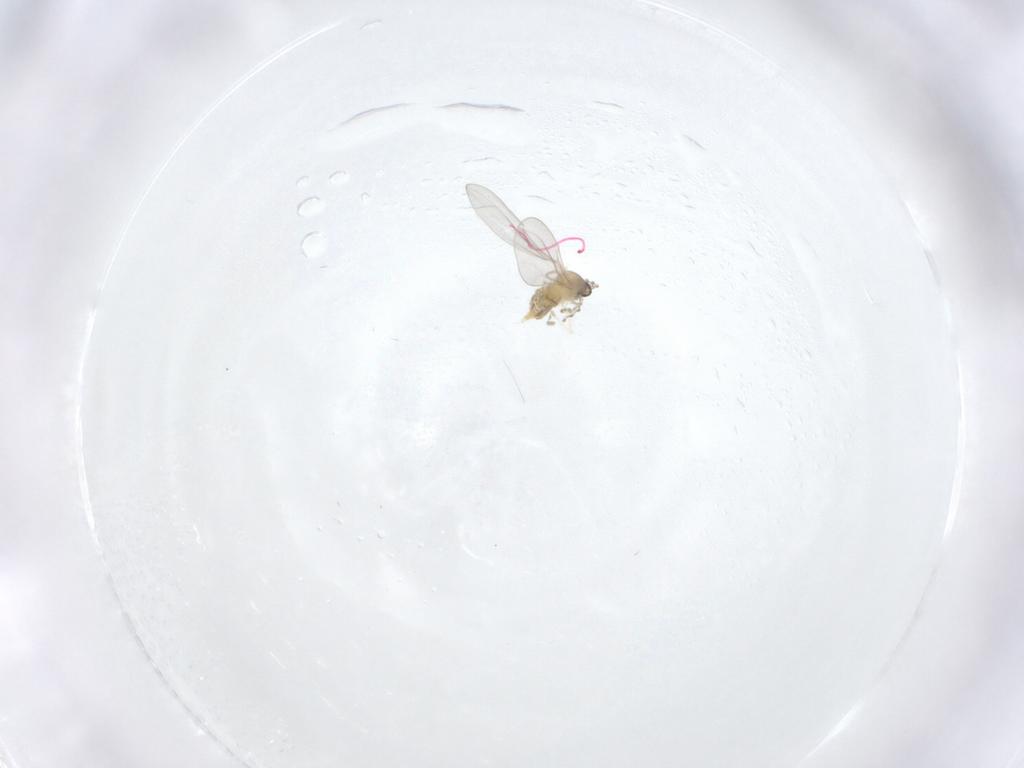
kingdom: Animalia
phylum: Arthropoda
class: Insecta
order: Diptera
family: Cecidomyiidae
